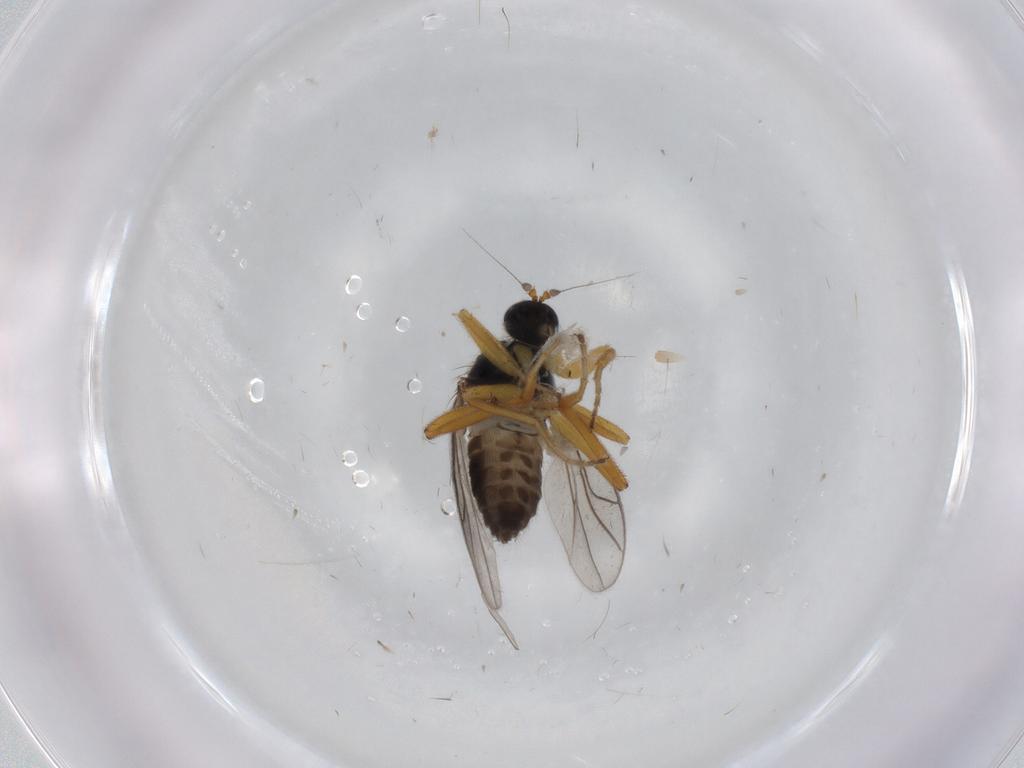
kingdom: Animalia
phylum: Arthropoda
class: Insecta
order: Diptera
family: Hybotidae
